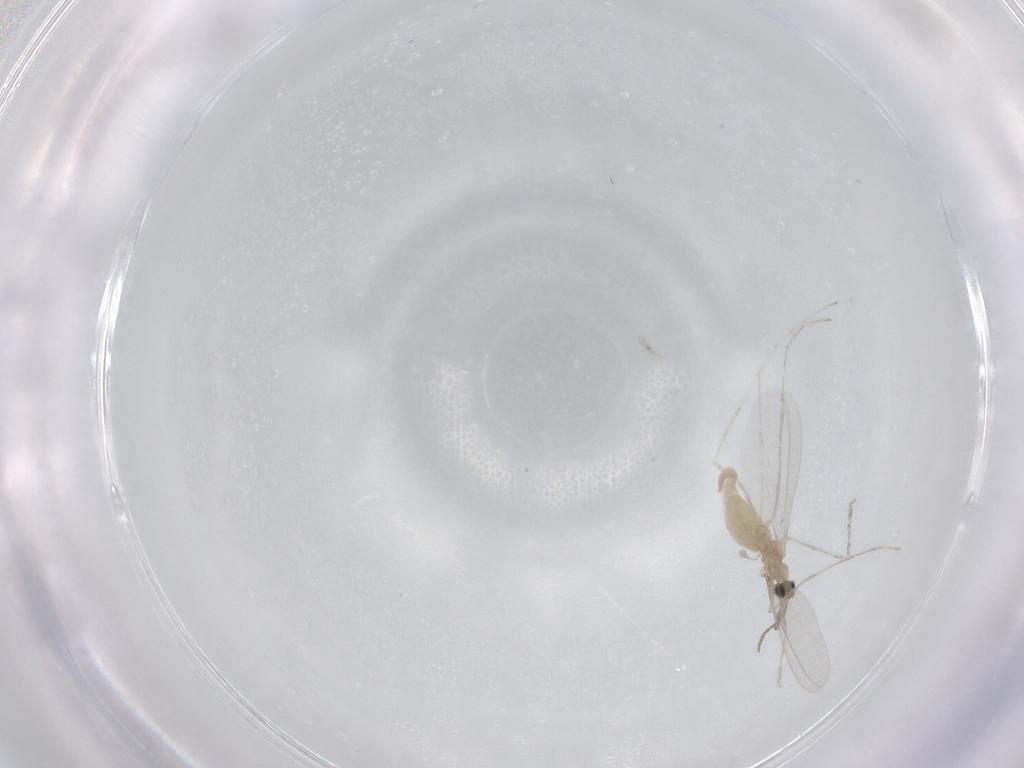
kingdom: Animalia
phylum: Arthropoda
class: Insecta
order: Diptera
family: Cecidomyiidae
